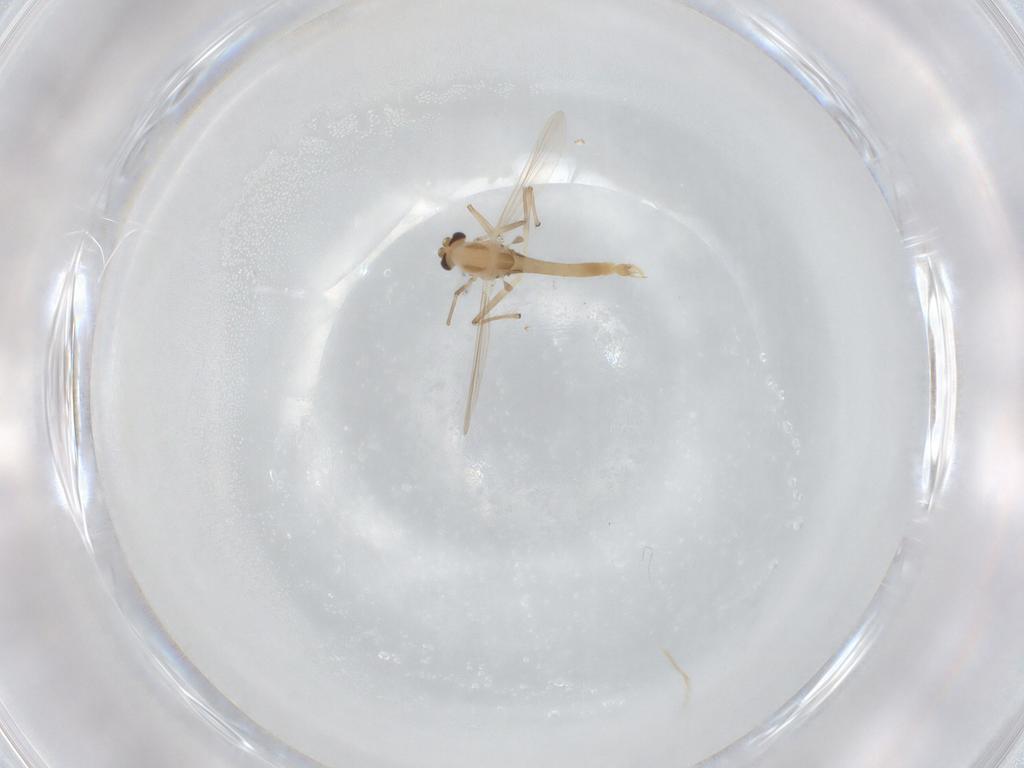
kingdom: Animalia
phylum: Arthropoda
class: Insecta
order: Diptera
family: Chironomidae
